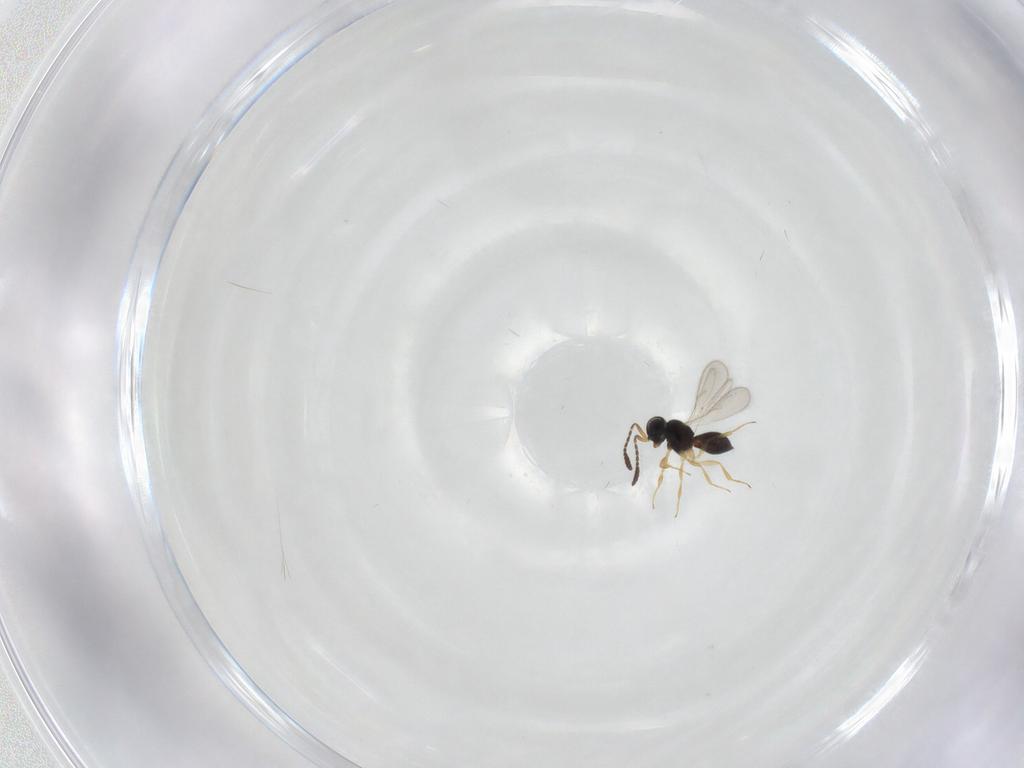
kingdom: Animalia
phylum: Arthropoda
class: Insecta
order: Hymenoptera
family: Scelionidae
